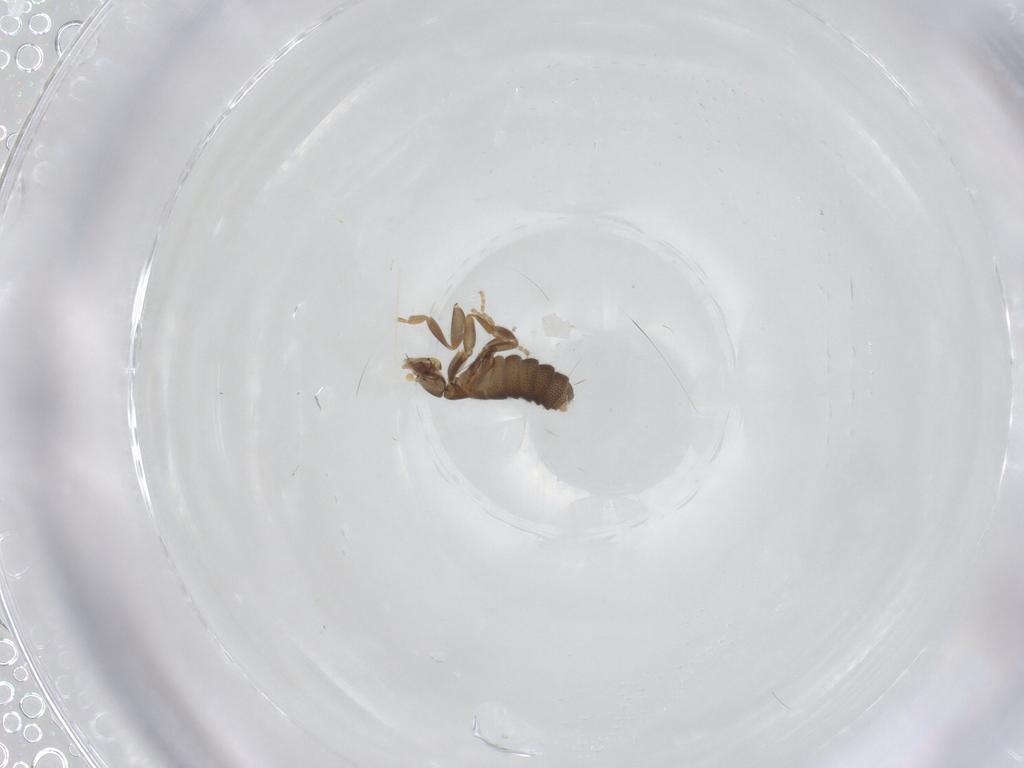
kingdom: Animalia
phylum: Arthropoda
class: Insecta
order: Diptera
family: Phoridae
